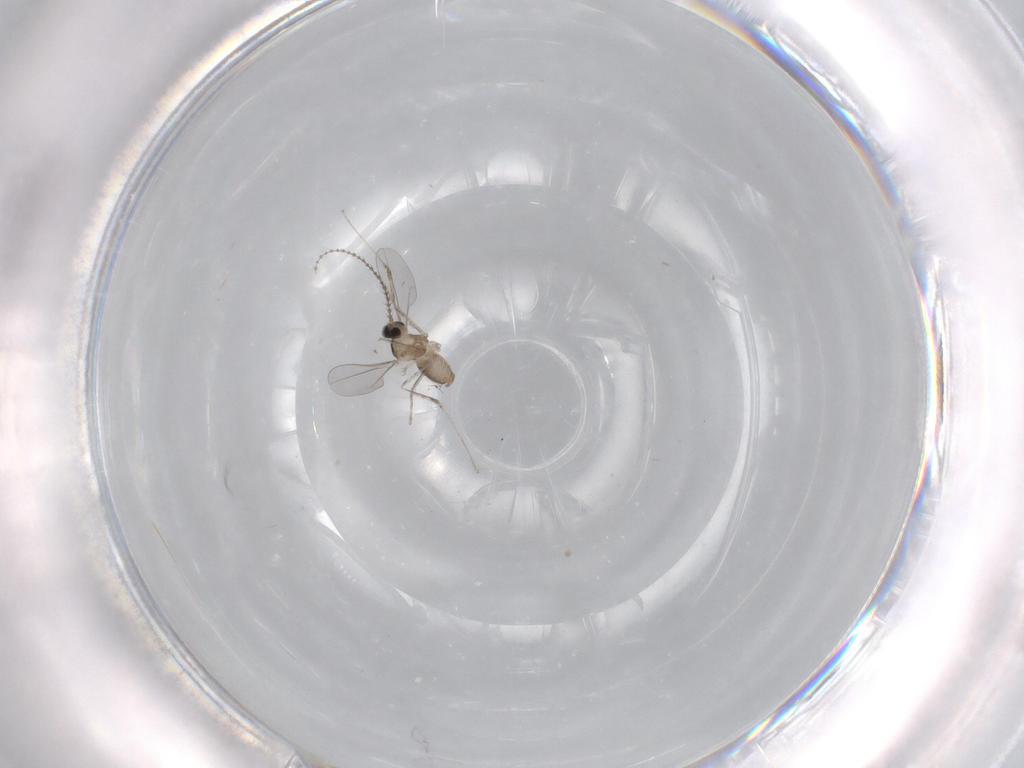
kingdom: Animalia
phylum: Arthropoda
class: Insecta
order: Diptera
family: Cecidomyiidae
